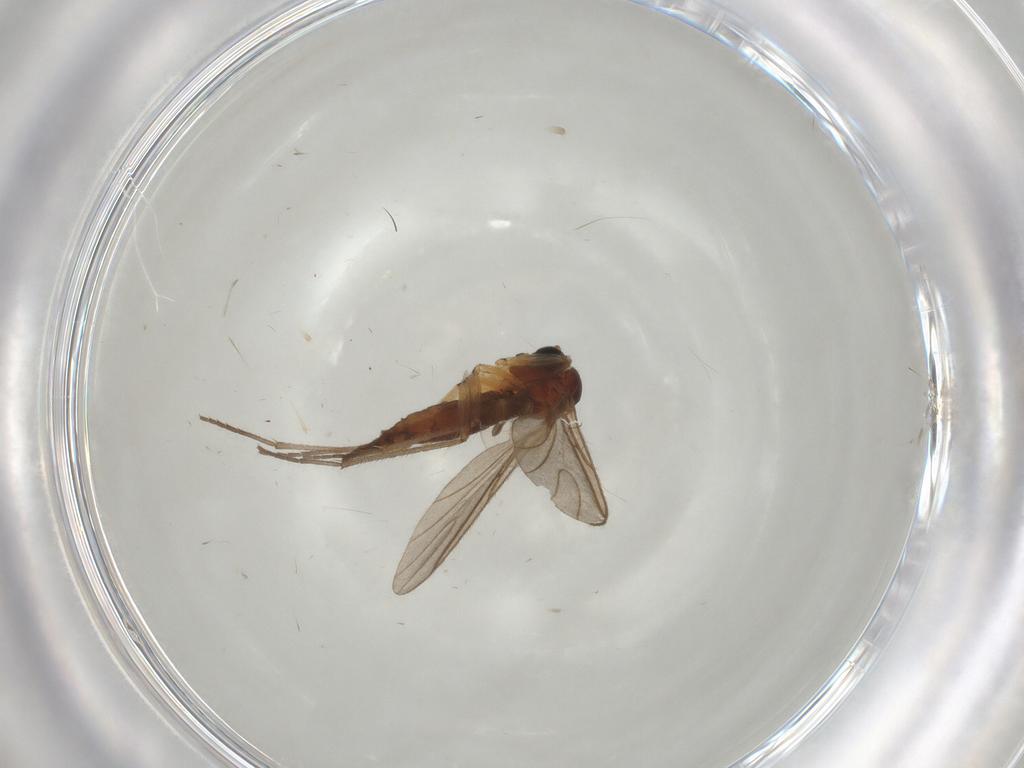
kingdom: Animalia
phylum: Arthropoda
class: Insecta
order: Diptera
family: Sciaridae
